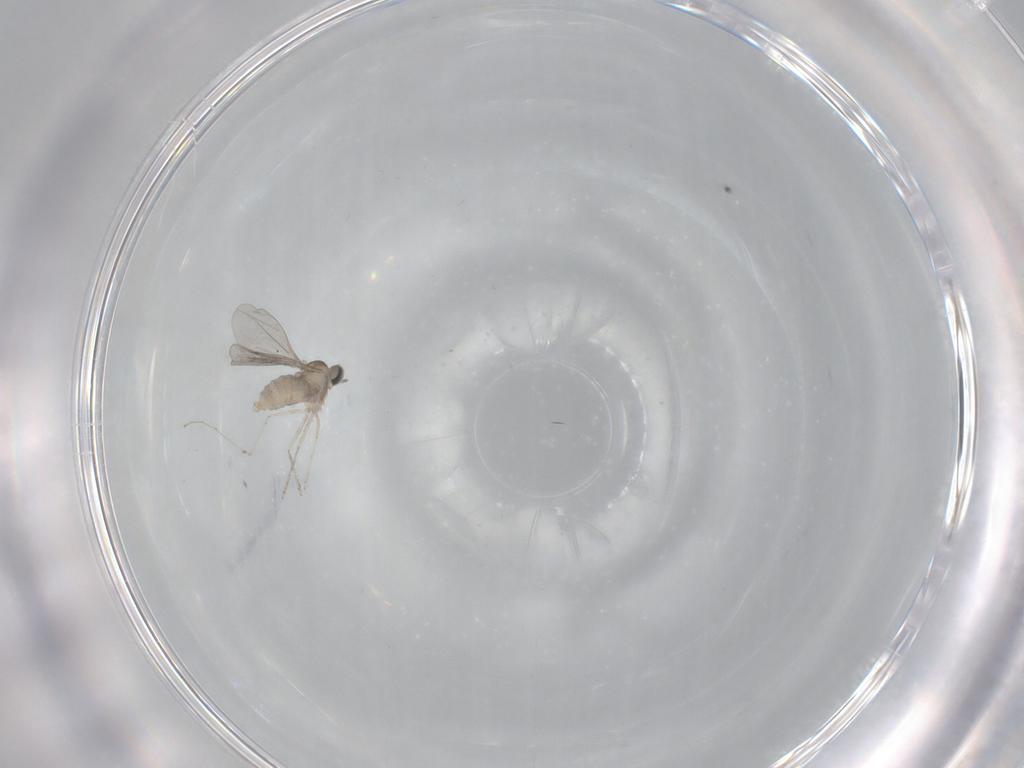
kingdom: Animalia
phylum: Arthropoda
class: Insecta
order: Diptera
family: Cecidomyiidae
